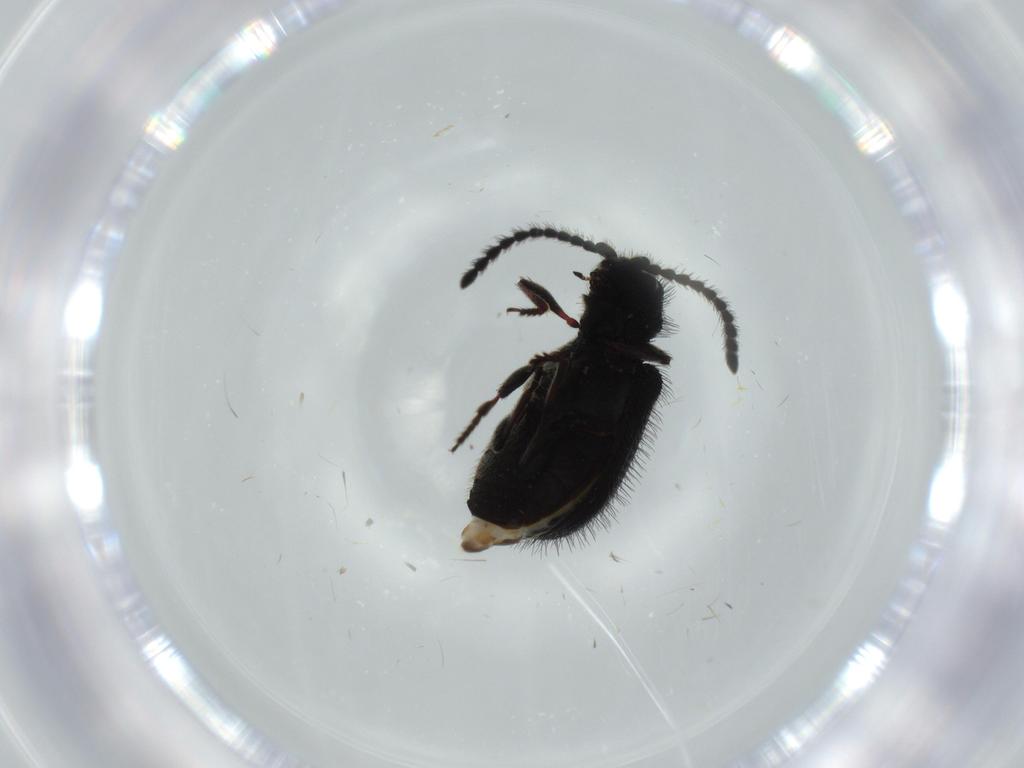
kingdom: Animalia
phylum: Arthropoda
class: Insecta
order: Coleoptera
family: Ptinidae
